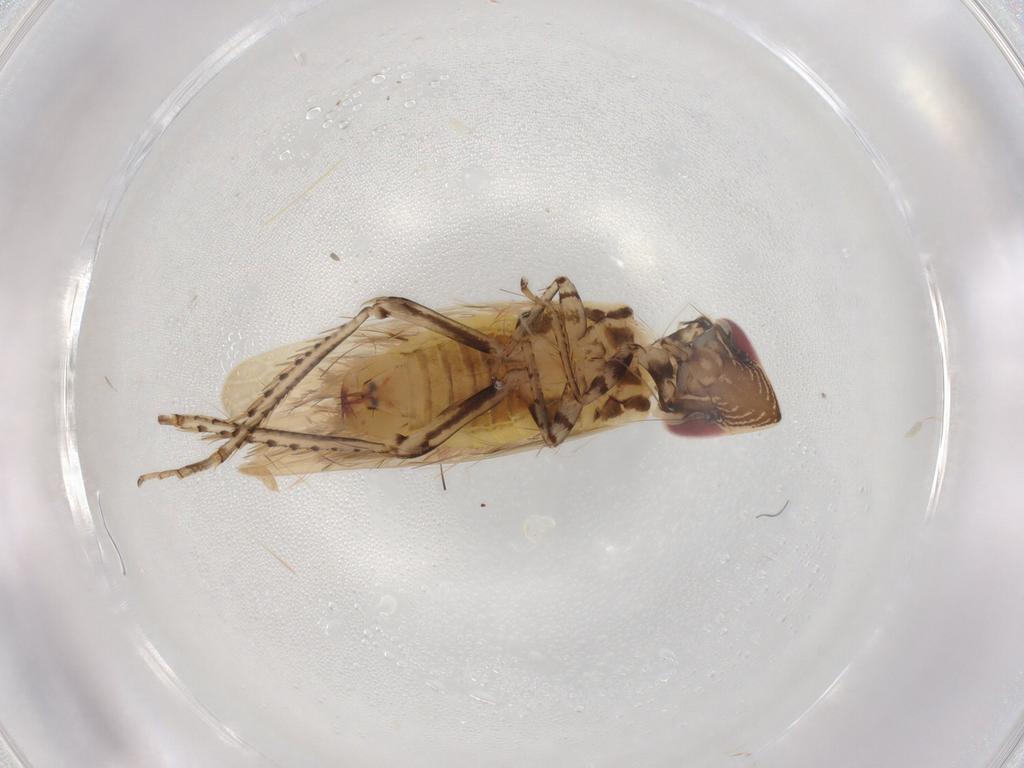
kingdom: Animalia
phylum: Arthropoda
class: Insecta
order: Hemiptera
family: Cicadellidae
